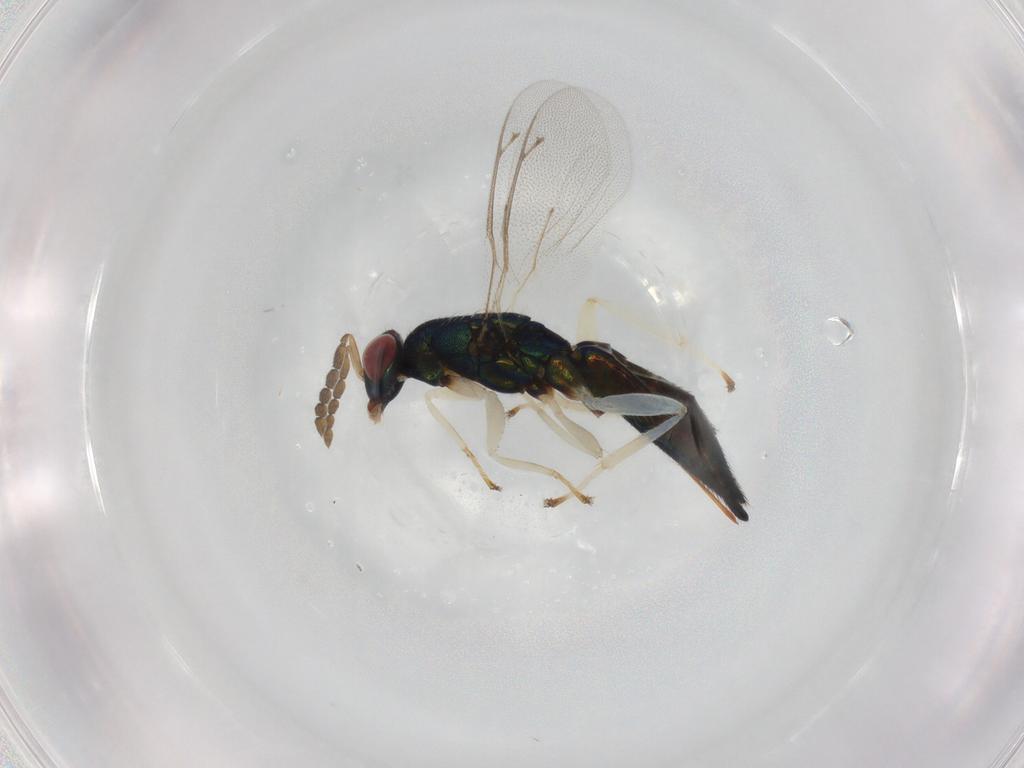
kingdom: Animalia
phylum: Arthropoda
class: Insecta
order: Hymenoptera
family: Eulophidae
